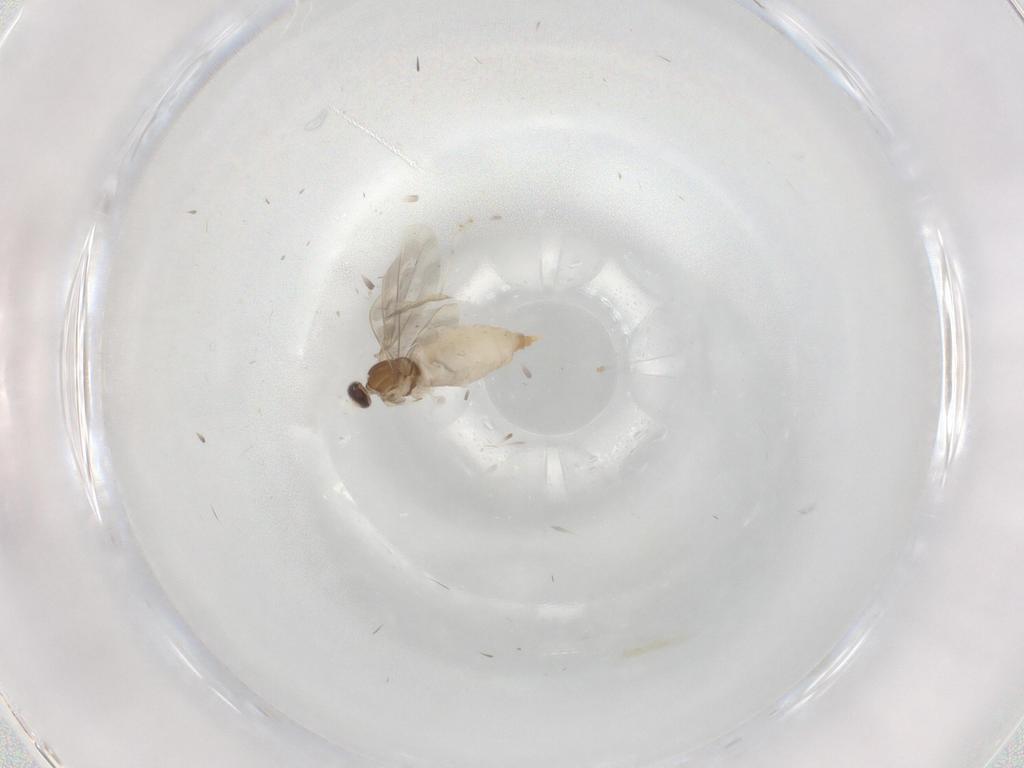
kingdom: Animalia
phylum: Arthropoda
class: Insecta
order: Diptera
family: Cecidomyiidae
